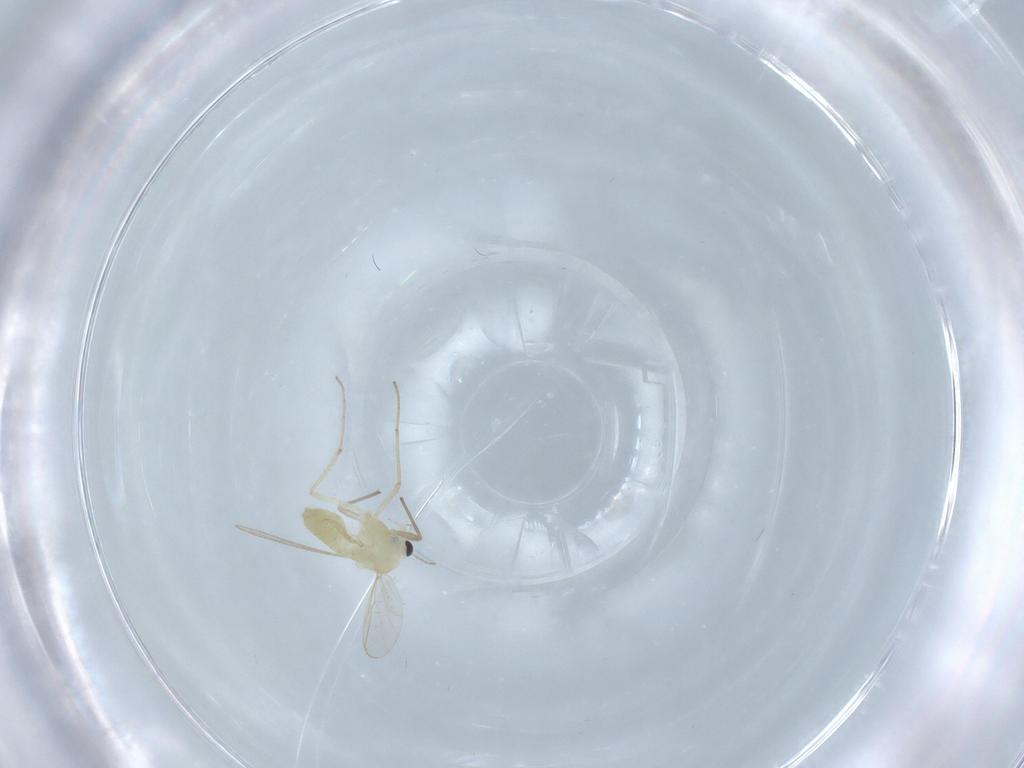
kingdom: Animalia
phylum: Arthropoda
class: Insecta
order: Diptera
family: Chironomidae
